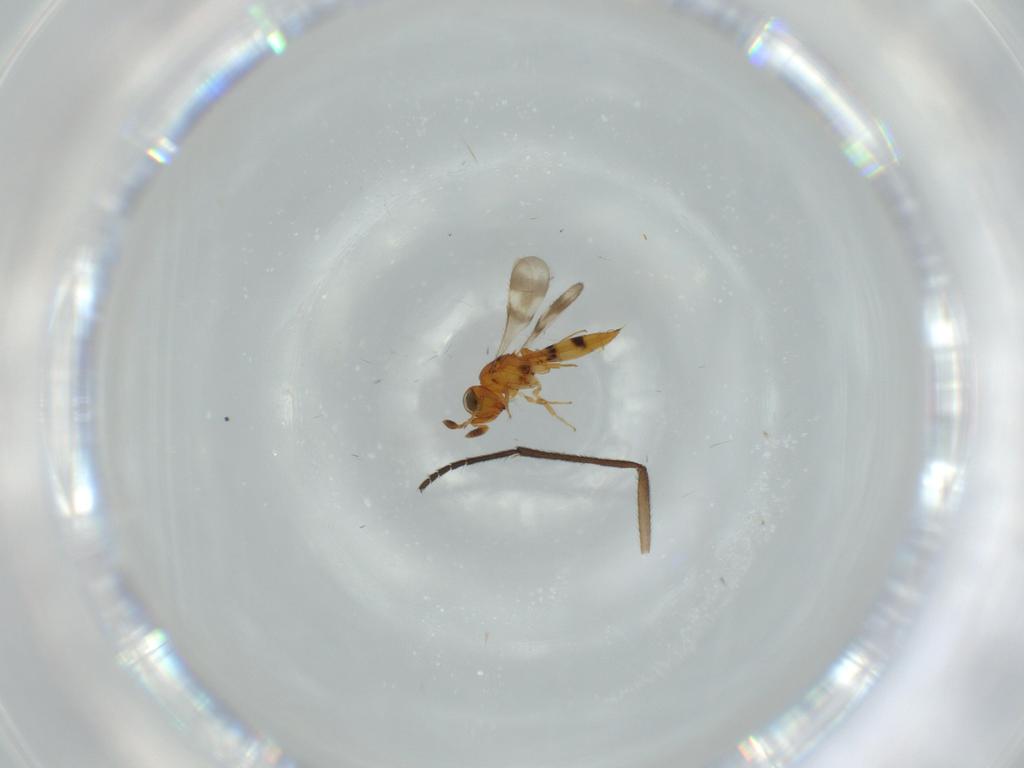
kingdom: Animalia
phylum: Arthropoda
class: Insecta
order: Hymenoptera
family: Scelionidae
